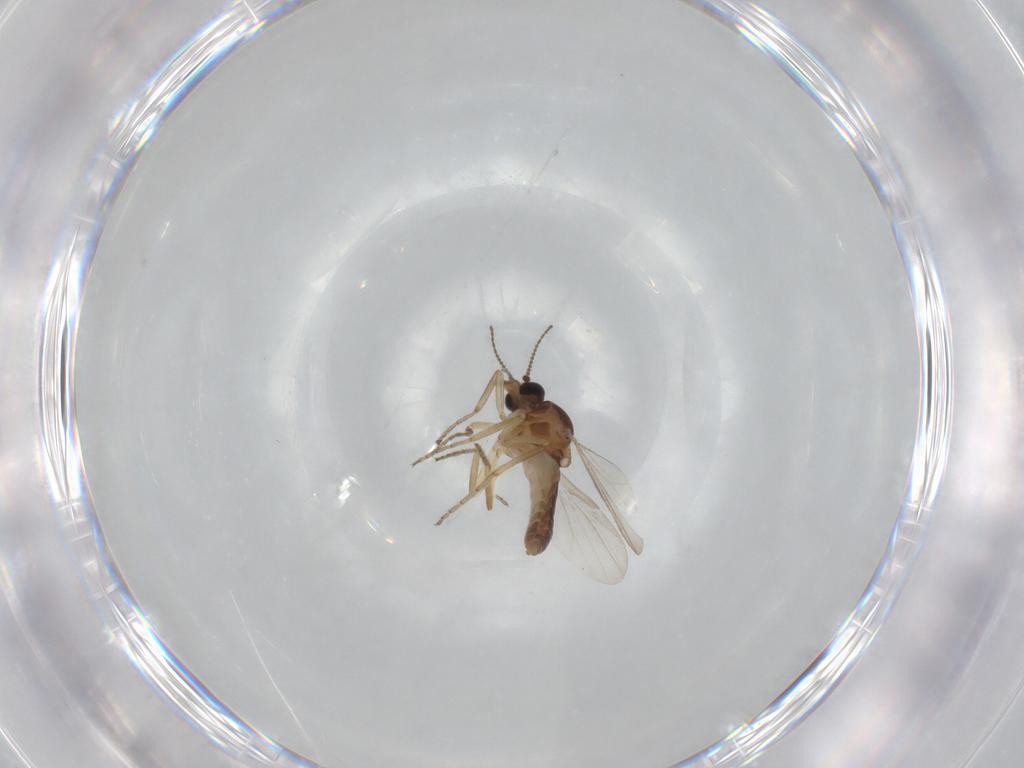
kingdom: Animalia
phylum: Arthropoda
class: Insecta
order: Diptera
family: Ceratopogonidae
